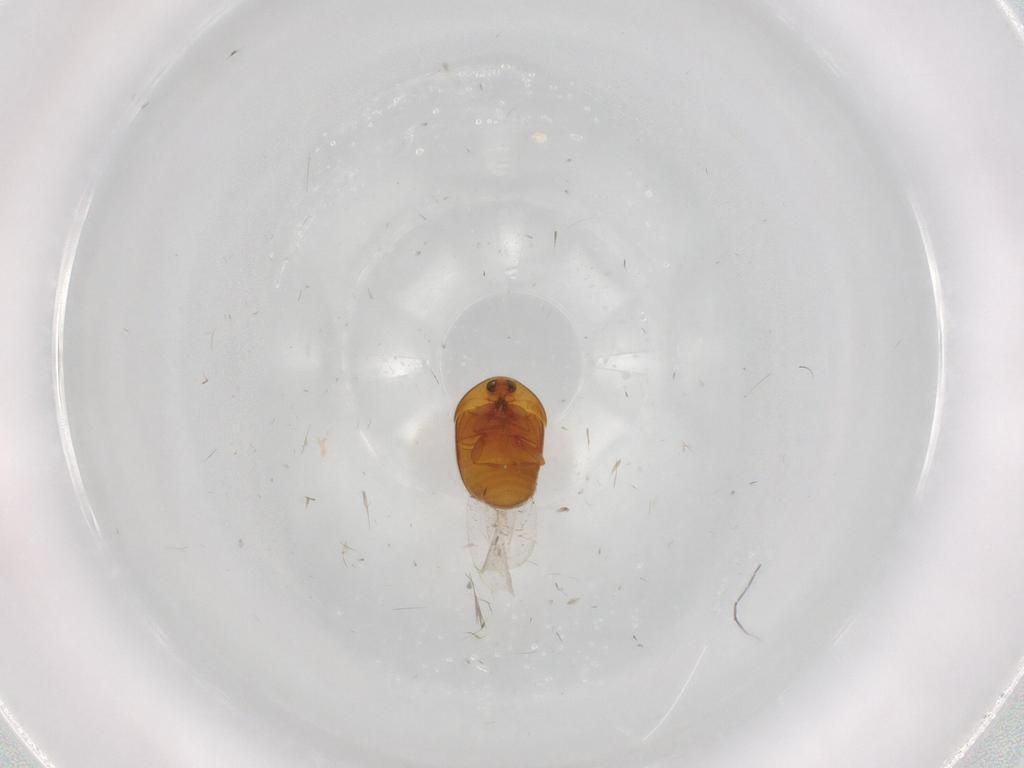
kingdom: Animalia
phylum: Arthropoda
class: Insecta
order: Coleoptera
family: Corylophidae
